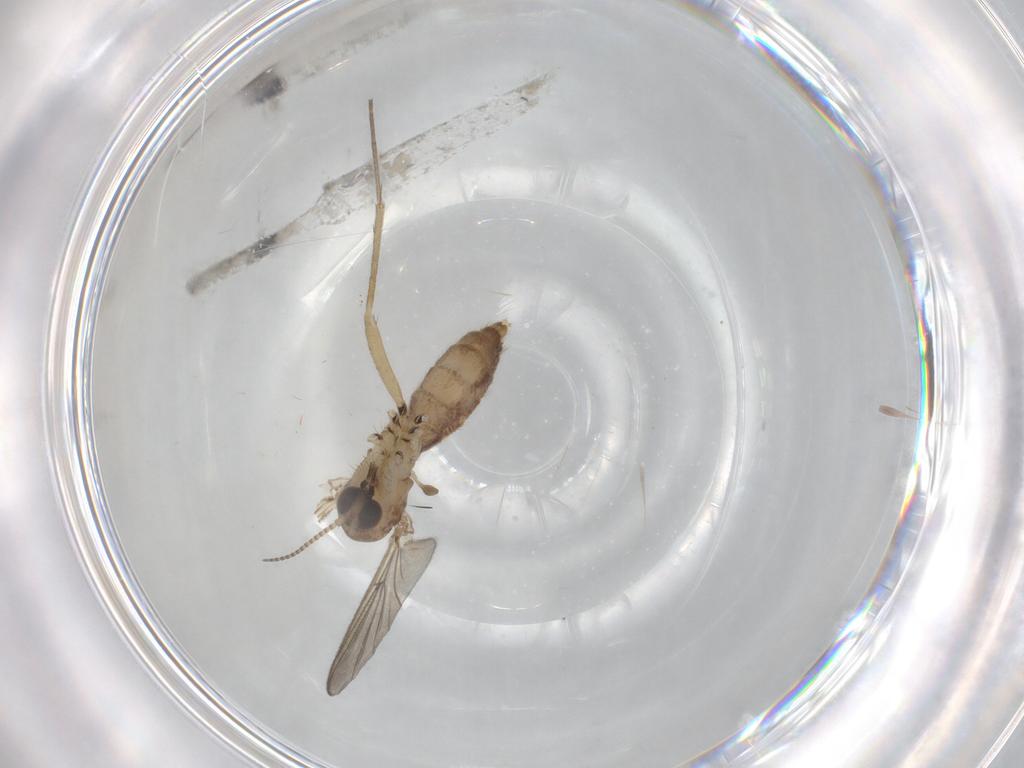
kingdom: Animalia
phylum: Arthropoda
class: Insecta
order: Diptera
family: Mycetophilidae
